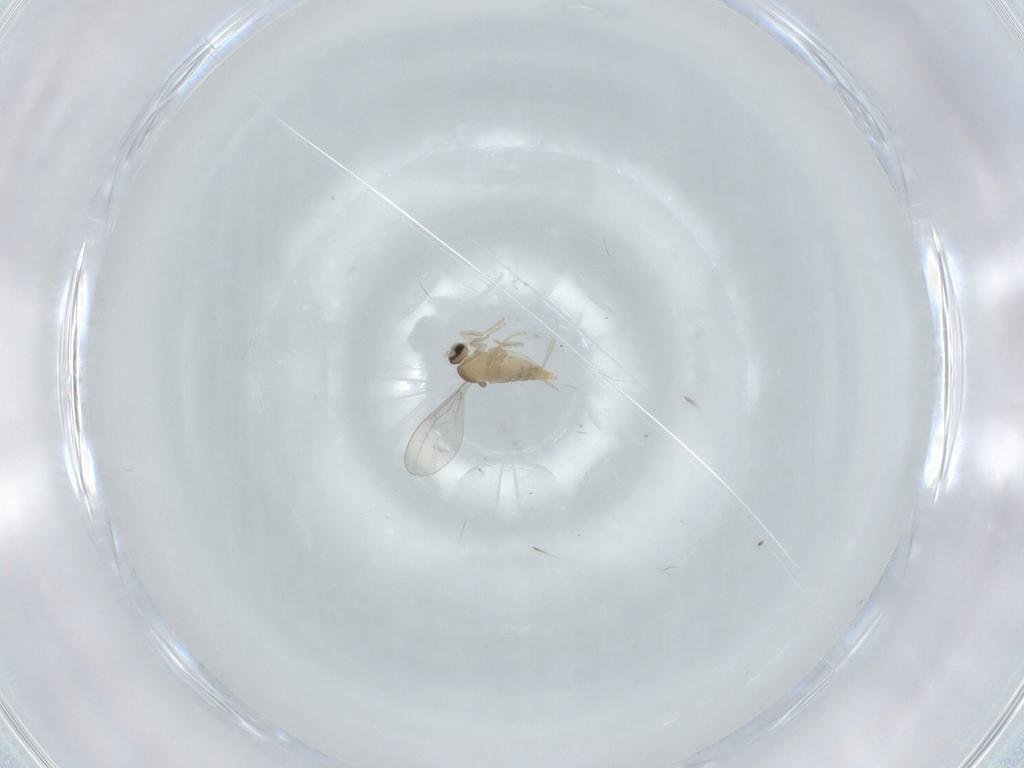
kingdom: Animalia
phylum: Arthropoda
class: Insecta
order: Diptera
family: Cecidomyiidae
